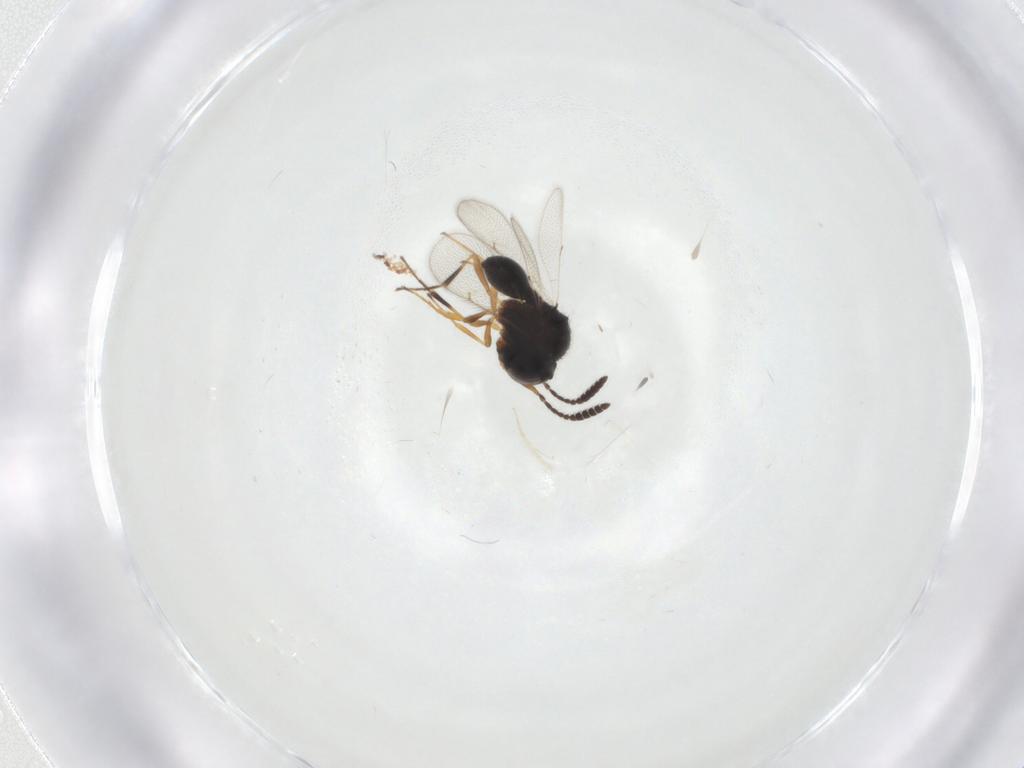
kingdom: Animalia
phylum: Arthropoda
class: Insecta
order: Hymenoptera
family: Scelionidae
